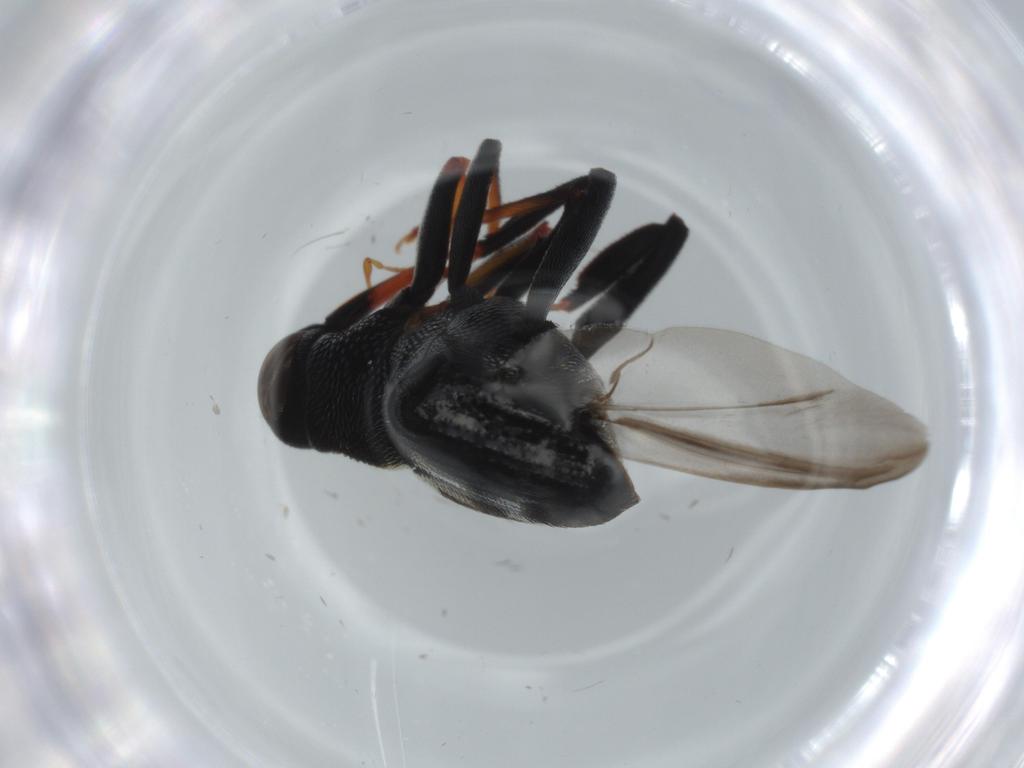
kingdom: Animalia
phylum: Arthropoda
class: Insecta
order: Coleoptera
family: Curculionidae
